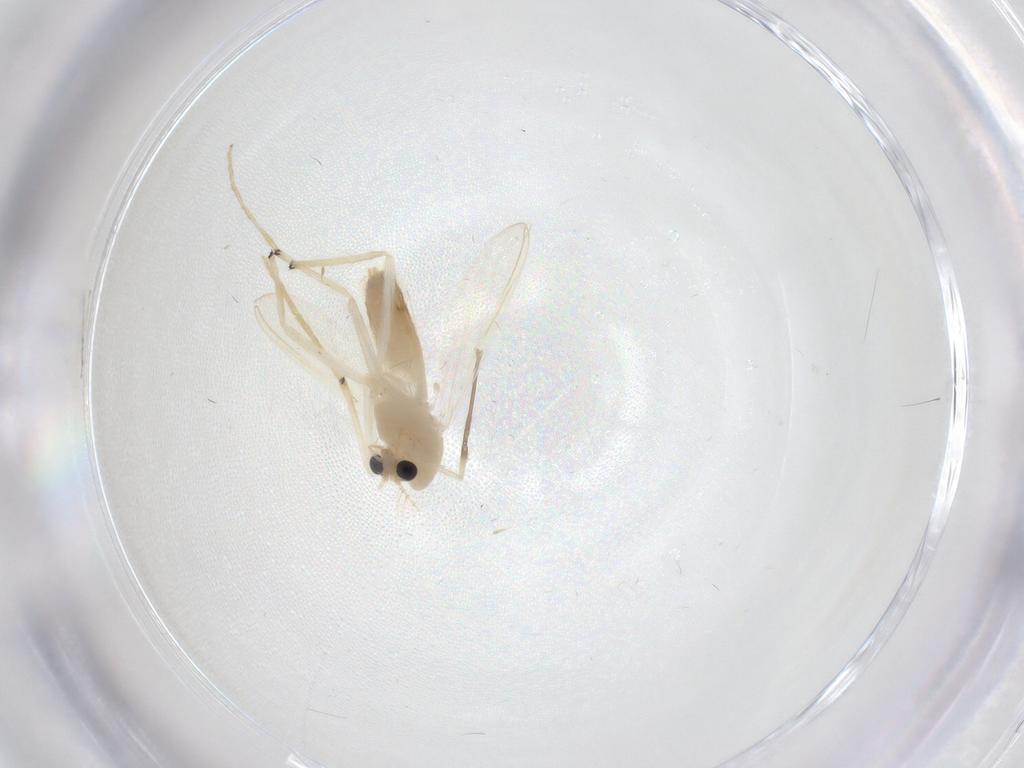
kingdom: Animalia
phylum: Arthropoda
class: Insecta
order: Diptera
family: Chironomidae
